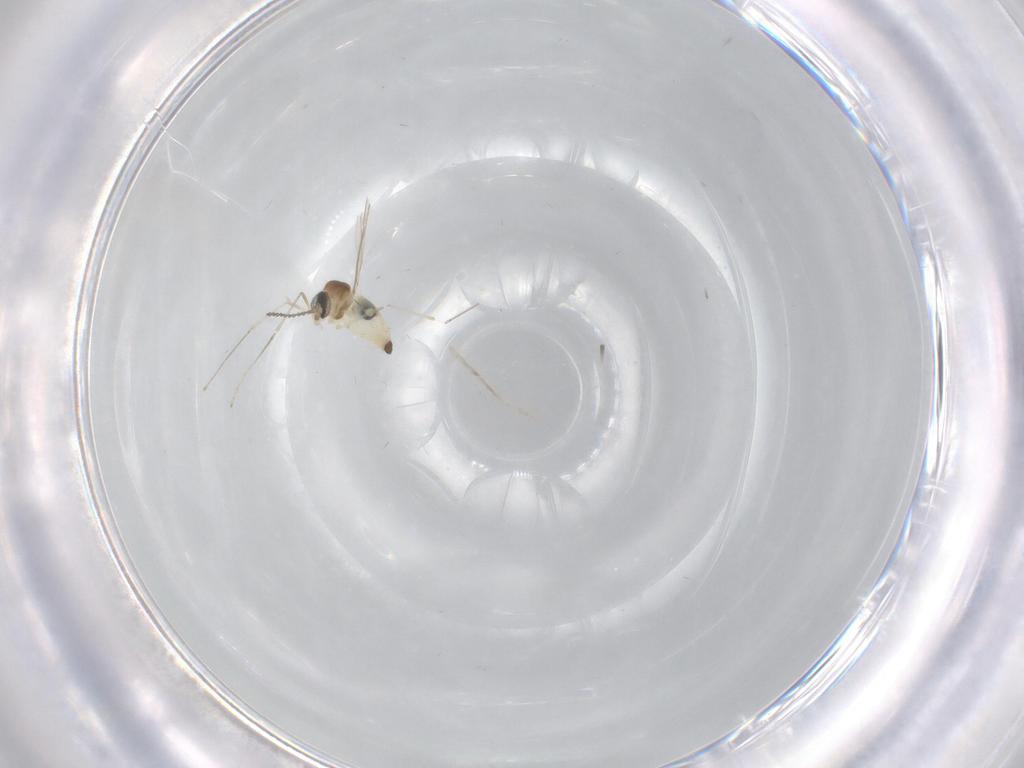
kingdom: Animalia
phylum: Arthropoda
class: Insecta
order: Diptera
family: Cecidomyiidae
